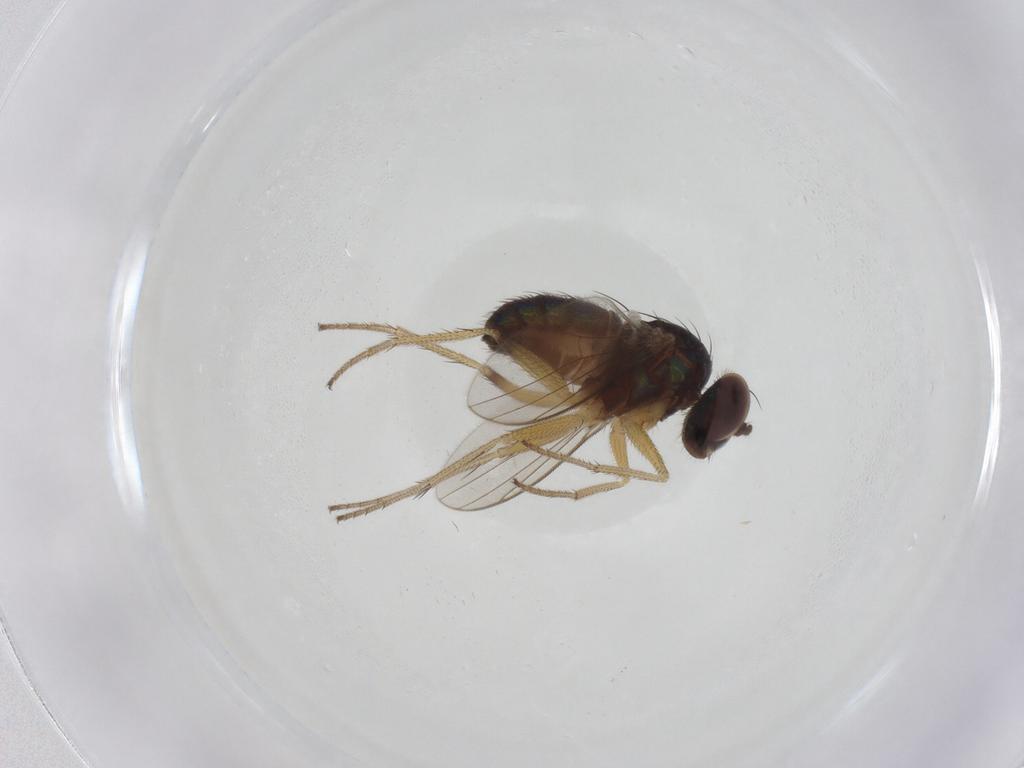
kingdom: Animalia
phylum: Arthropoda
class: Insecta
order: Diptera
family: Dolichopodidae
